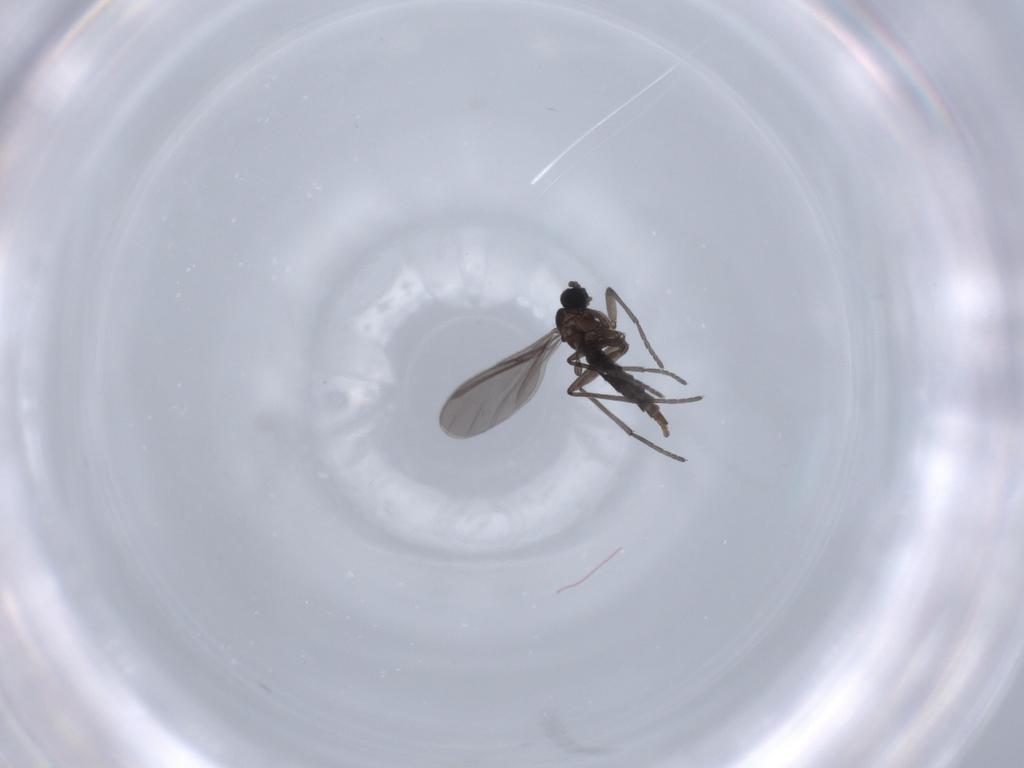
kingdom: Animalia
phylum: Arthropoda
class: Insecta
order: Diptera
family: Sciaridae
